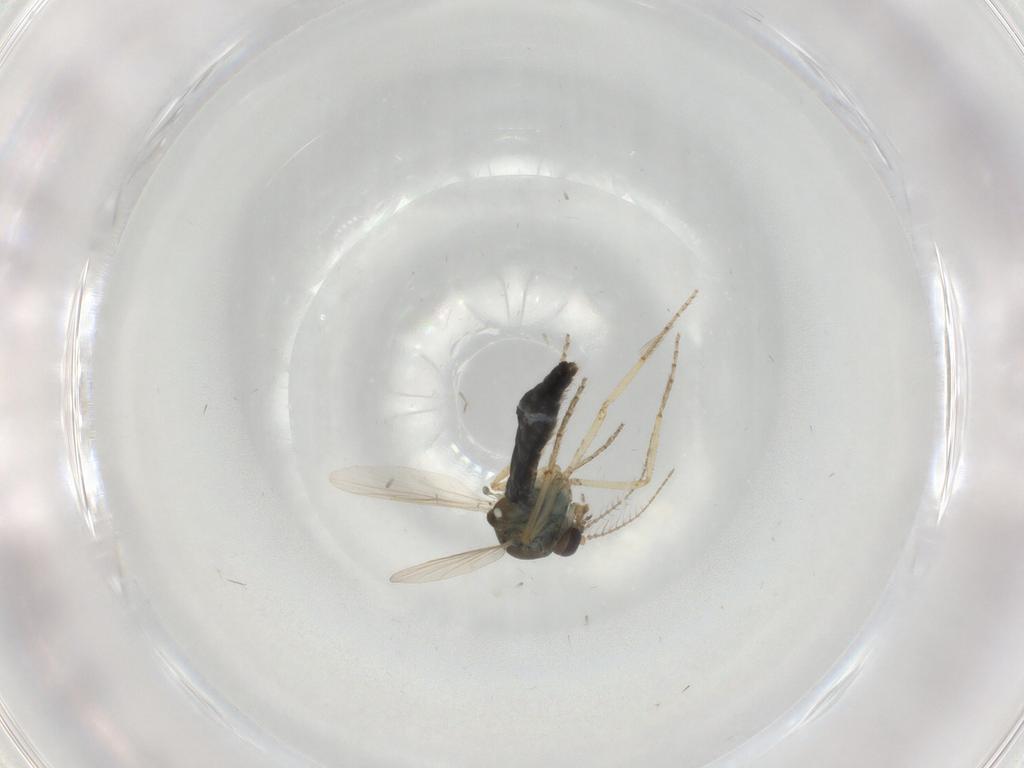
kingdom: Animalia
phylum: Arthropoda
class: Insecta
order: Diptera
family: Ceratopogonidae
